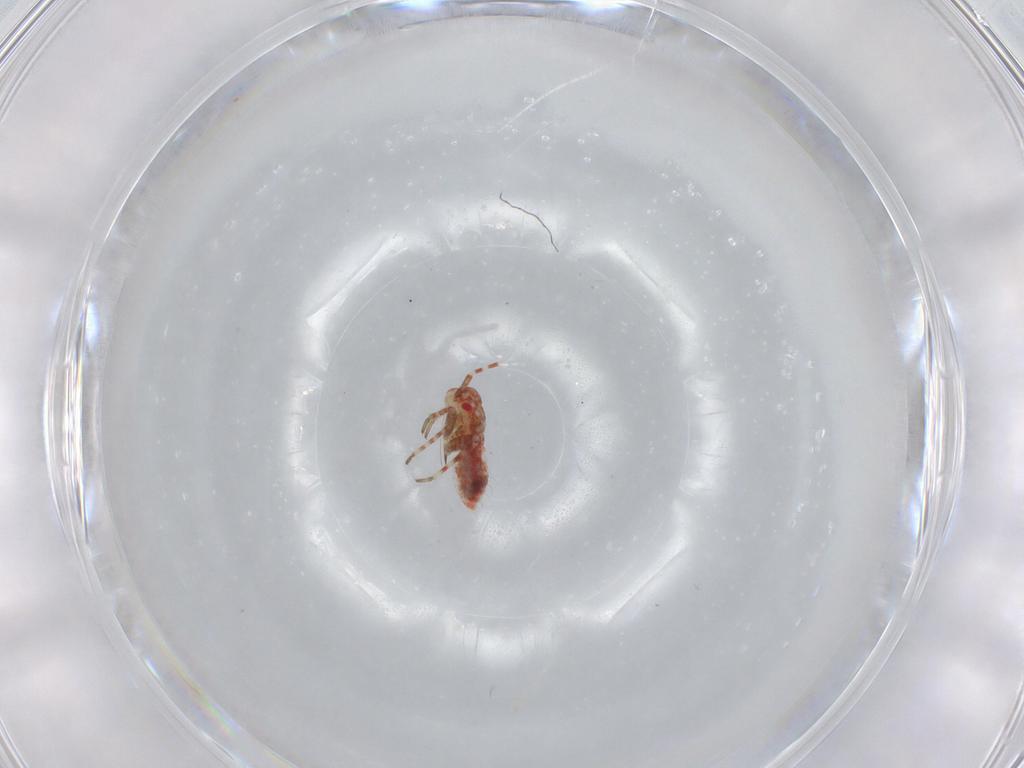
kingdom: Animalia
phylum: Arthropoda
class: Insecta
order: Hemiptera
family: Miridae
